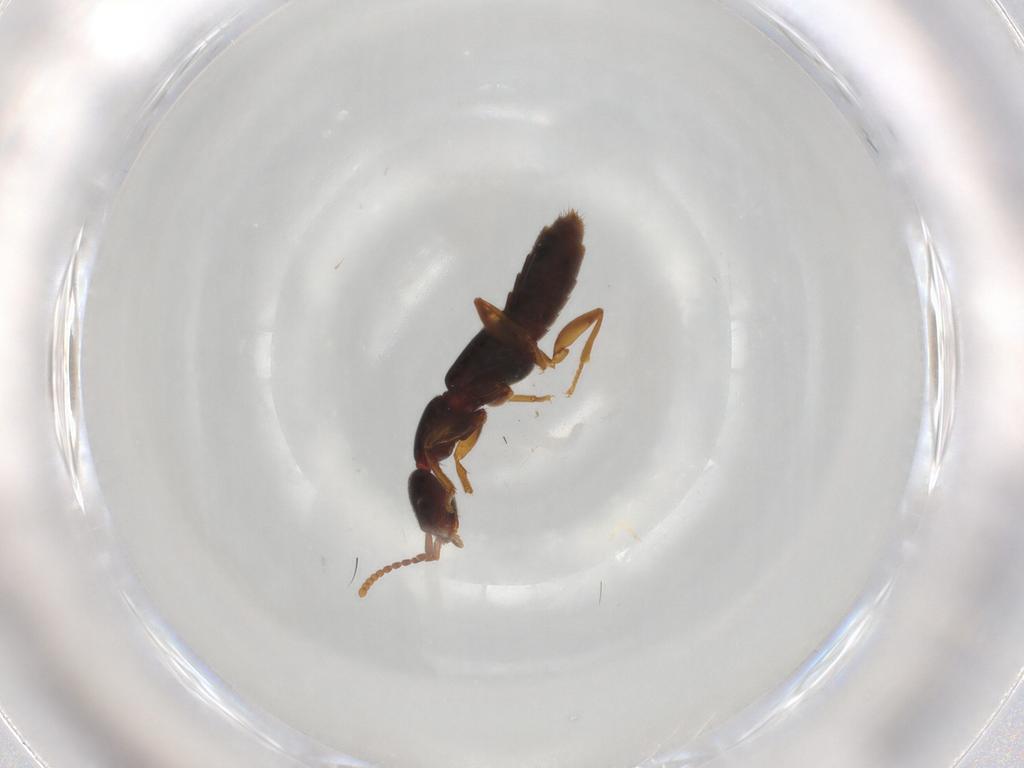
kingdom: Animalia
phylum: Arthropoda
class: Insecta
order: Coleoptera
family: Staphylinidae
